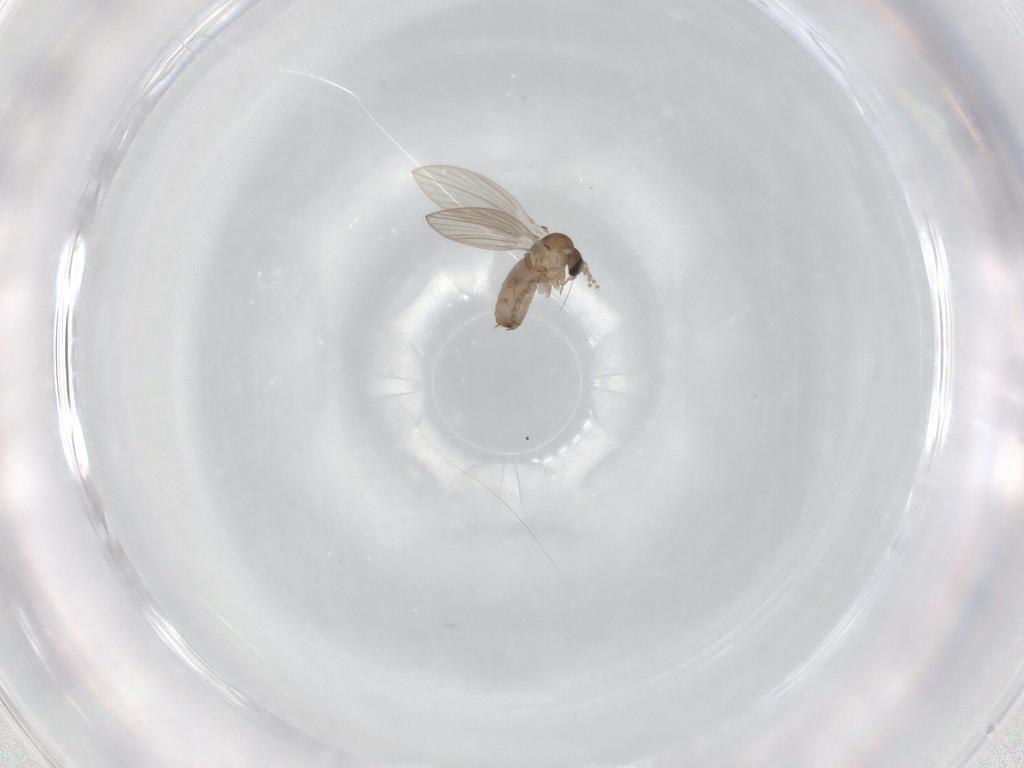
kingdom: Animalia
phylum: Arthropoda
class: Insecta
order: Diptera
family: Psychodidae
